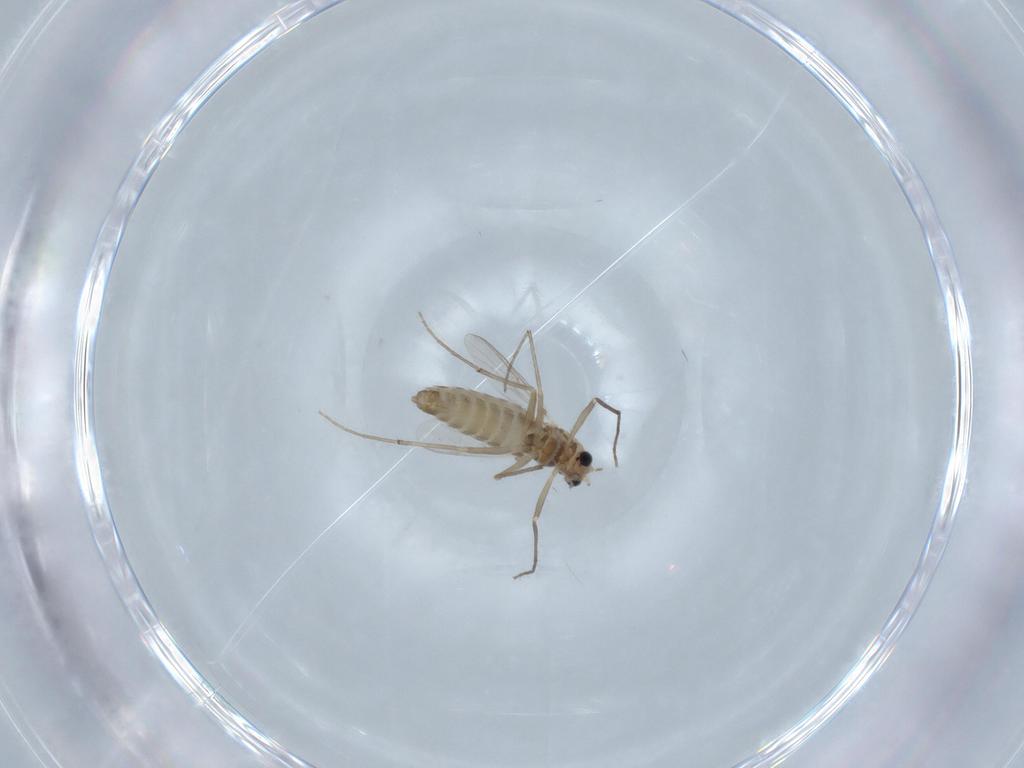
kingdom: Animalia
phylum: Arthropoda
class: Insecta
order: Diptera
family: Chironomidae
